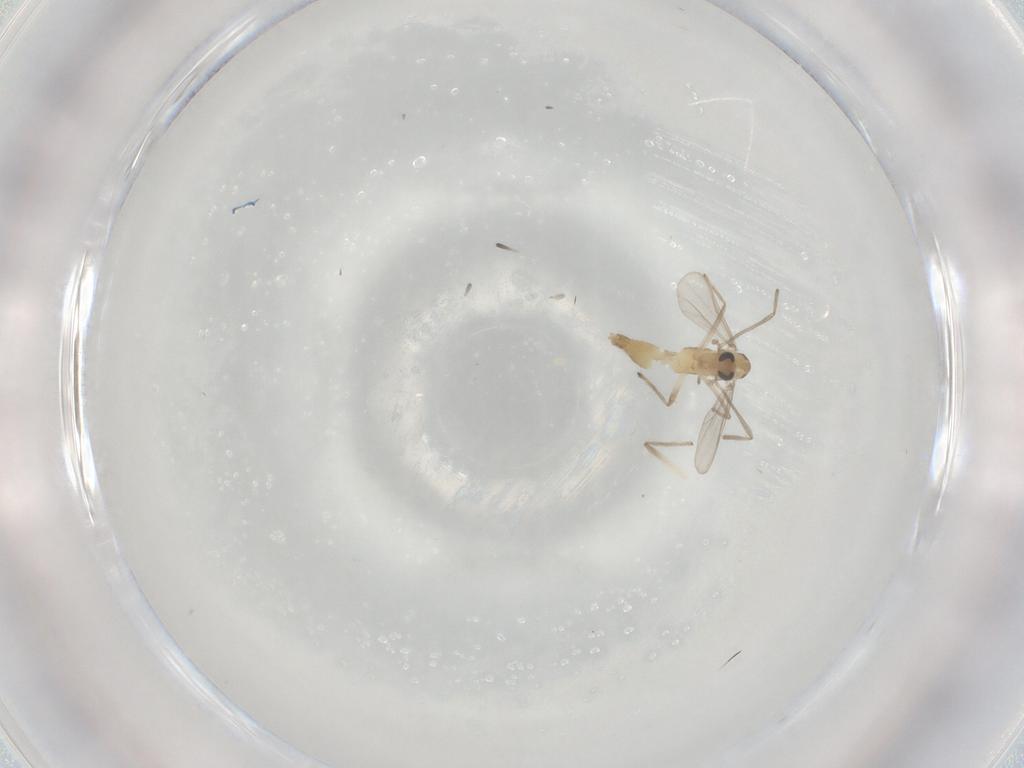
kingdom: Animalia
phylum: Arthropoda
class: Insecta
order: Diptera
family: Chironomidae
